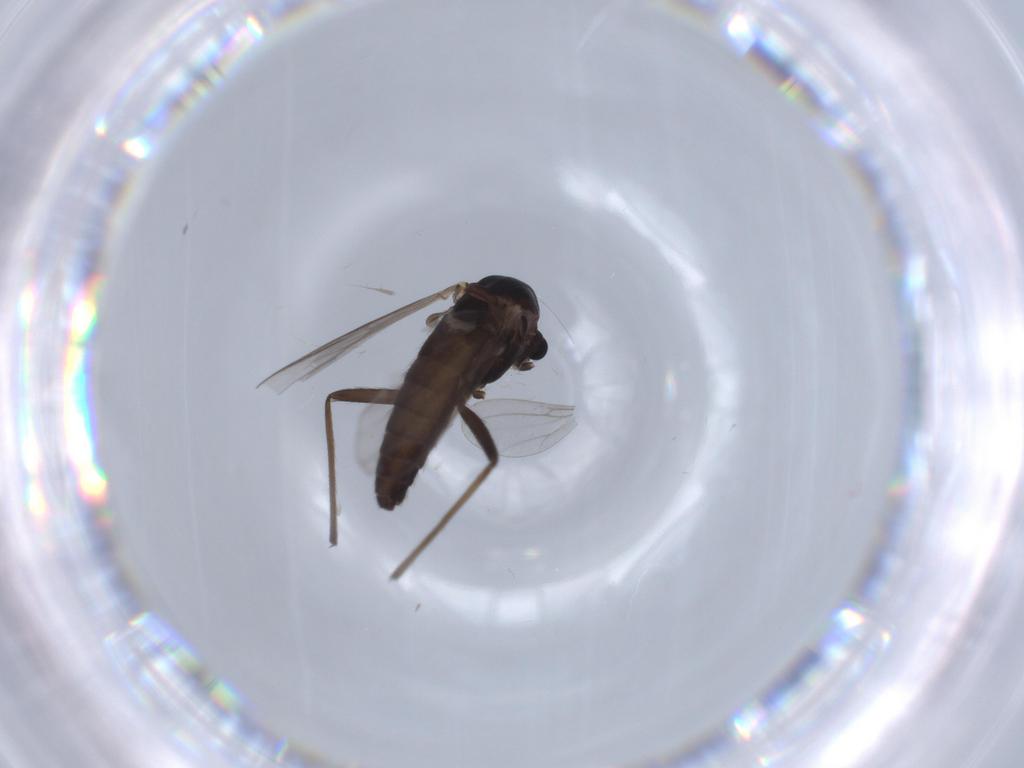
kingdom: Animalia
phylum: Arthropoda
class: Insecta
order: Diptera
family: Chironomidae
